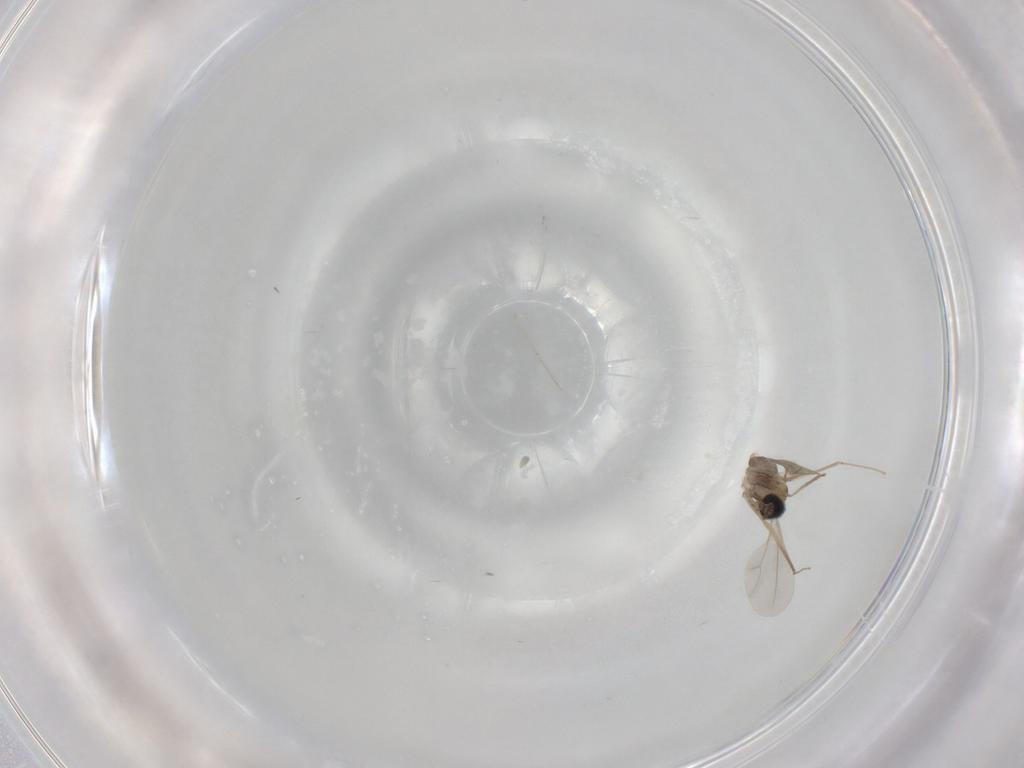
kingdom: Animalia
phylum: Arthropoda
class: Insecta
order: Diptera
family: Cecidomyiidae
